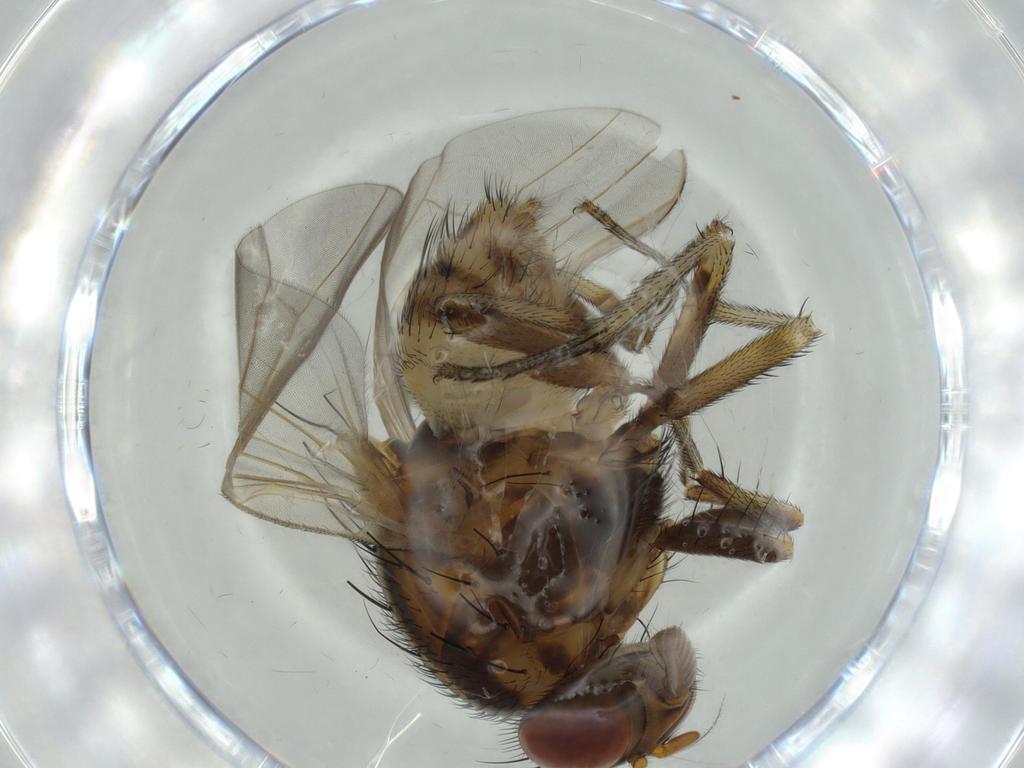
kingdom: Animalia
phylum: Arthropoda
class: Insecta
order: Diptera
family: Chironomidae
